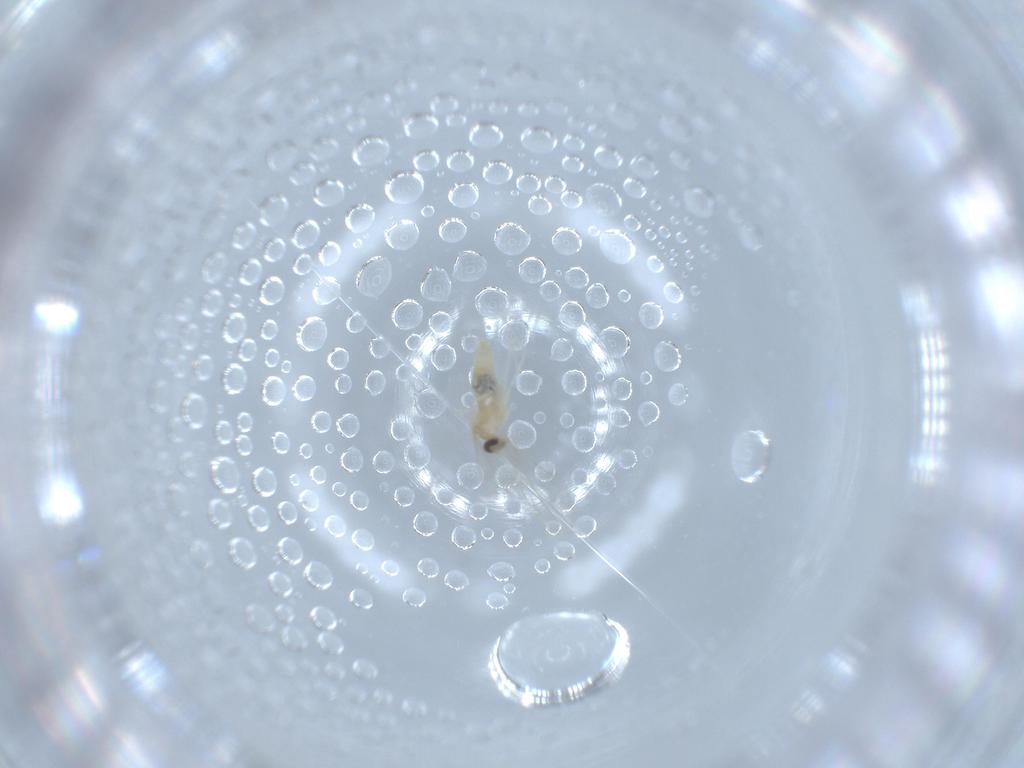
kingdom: Animalia
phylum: Arthropoda
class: Insecta
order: Diptera
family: Cecidomyiidae
